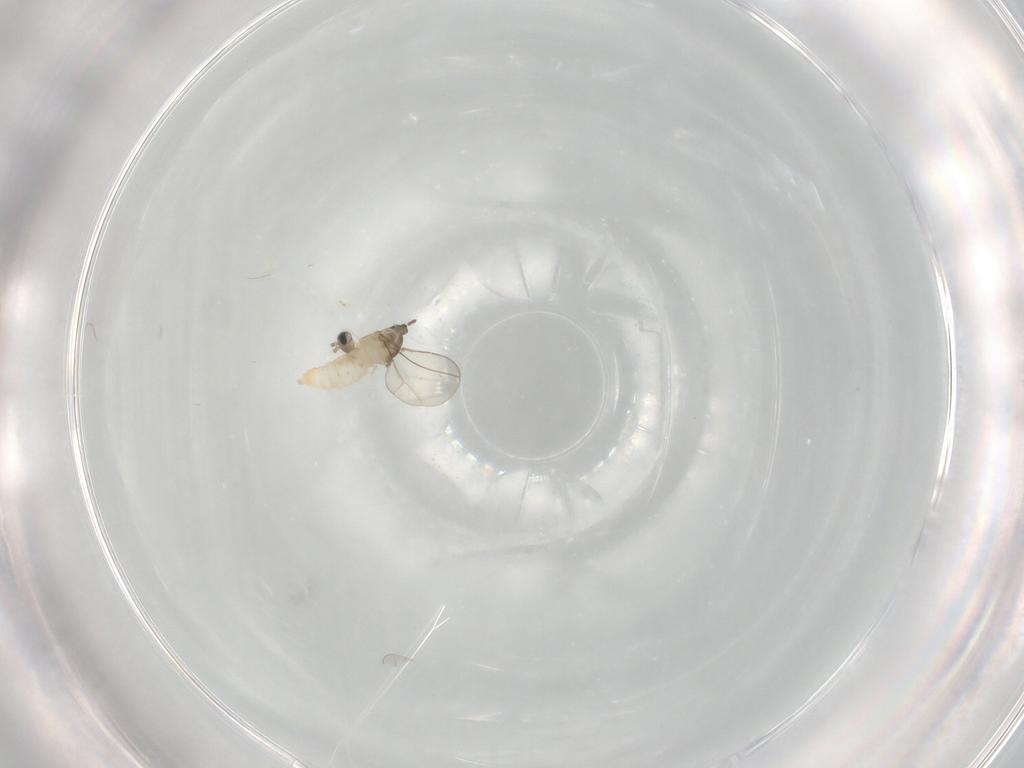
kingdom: Animalia
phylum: Arthropoda
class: Insecta
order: Diptera
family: Cecidomyiidae
